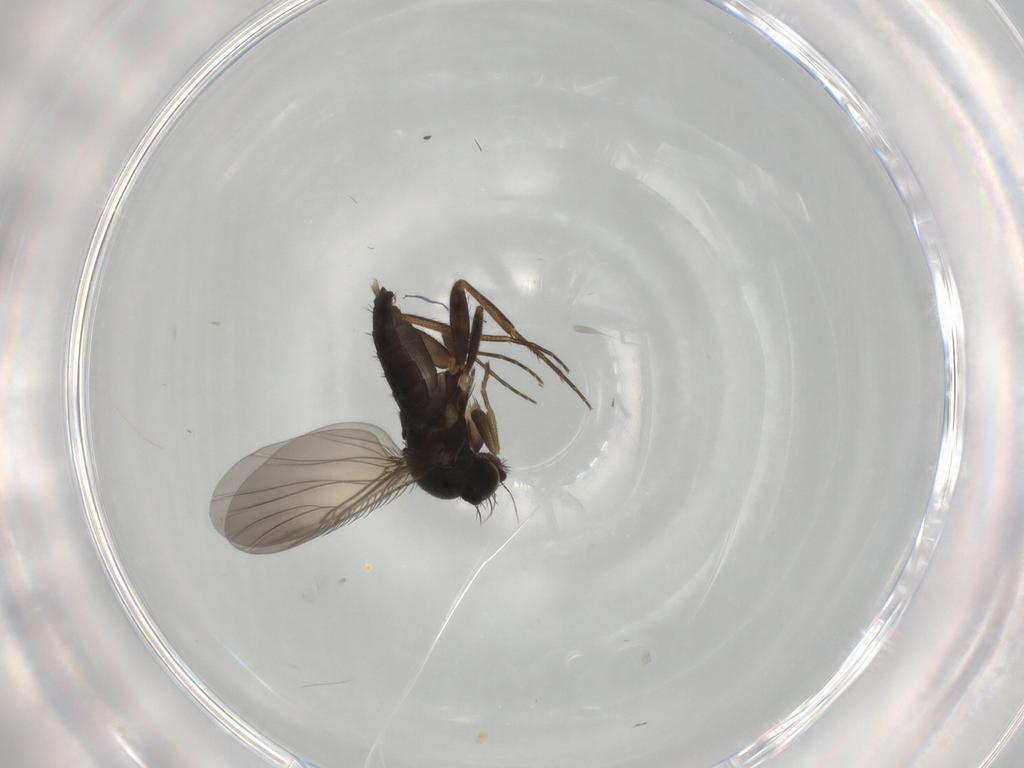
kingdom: Animalia
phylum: Arthropoda
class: Insecta
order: Diptera
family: Phoridae
